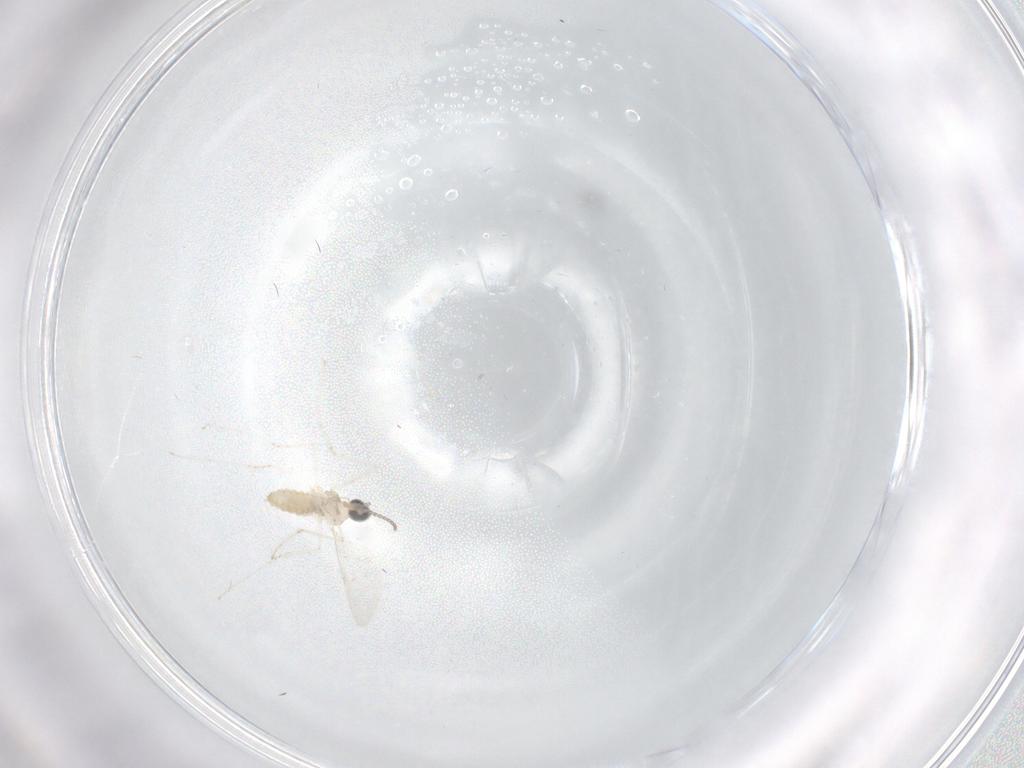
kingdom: Animalia
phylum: Arthropoda
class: Insecta
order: Diptera
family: Cecidomyiidae
